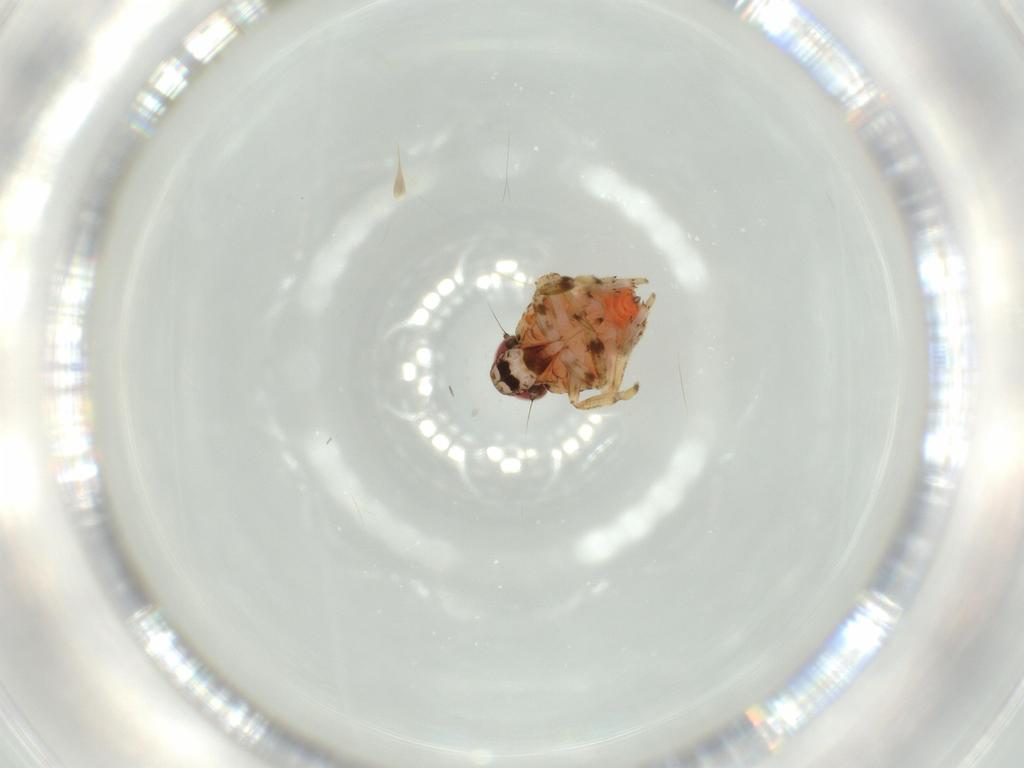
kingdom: Animalia
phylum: Arthropoda
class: Insecta
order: Hemiptera
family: Issidae
